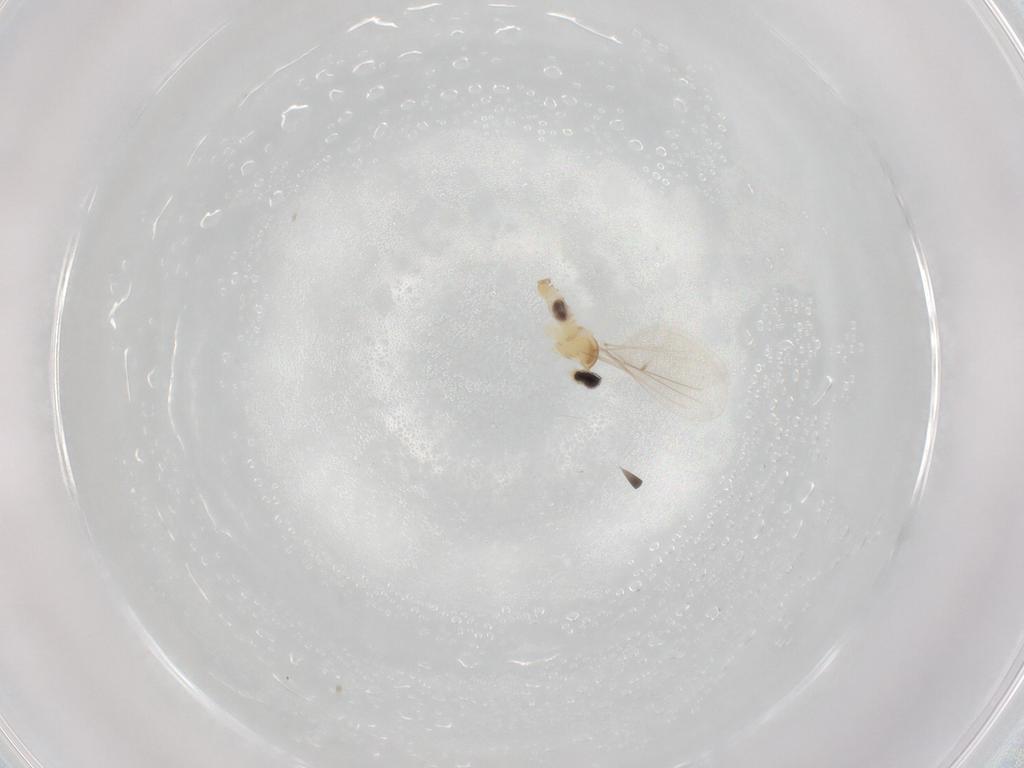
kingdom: Animalia
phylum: Arthropoda
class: Insecta
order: Diptera
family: Cecidomyiidae
